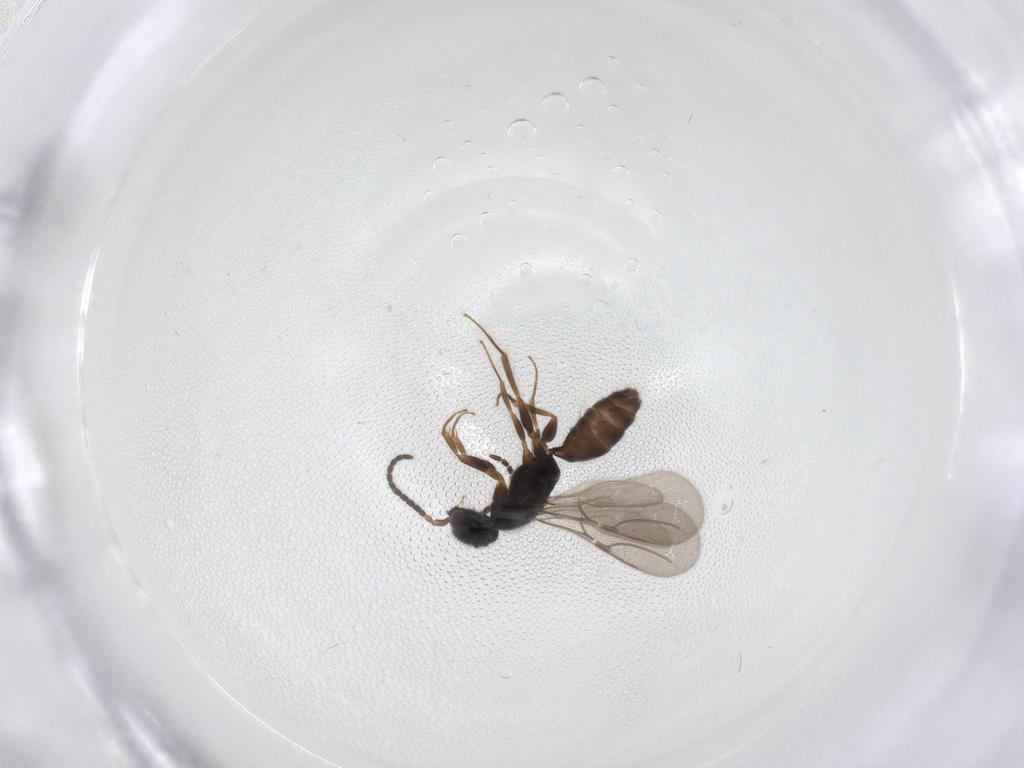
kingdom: Animalia
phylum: Arthropoda
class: Insecta
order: Hymenoptera
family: Bethylidae
